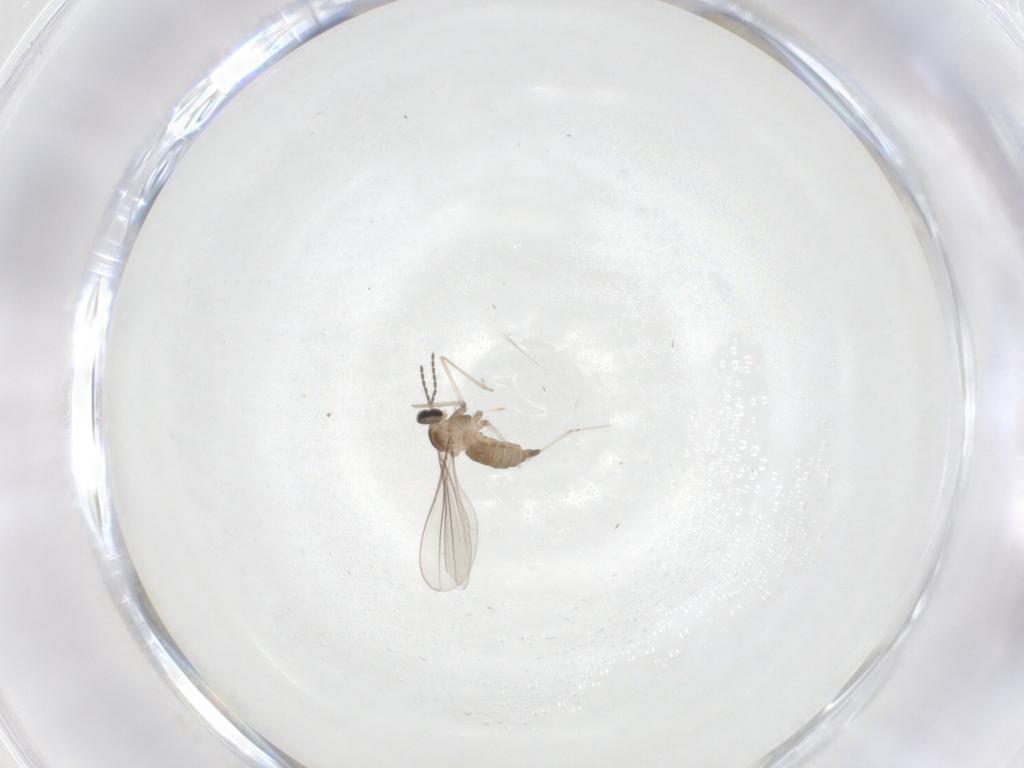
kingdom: Animalia
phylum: Arthropoda
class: Insecta
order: Diptera
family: Cecidomyiidae
